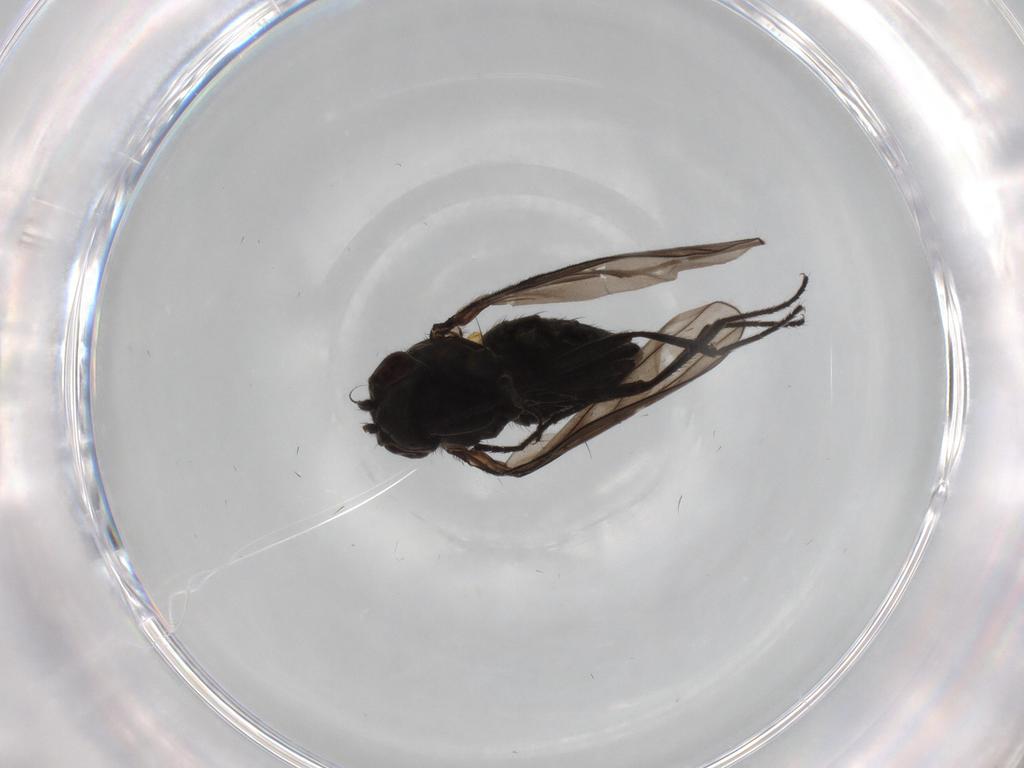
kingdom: Animalia
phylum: Arthropoda
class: Insecta
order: Diptera
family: Ephydridae
